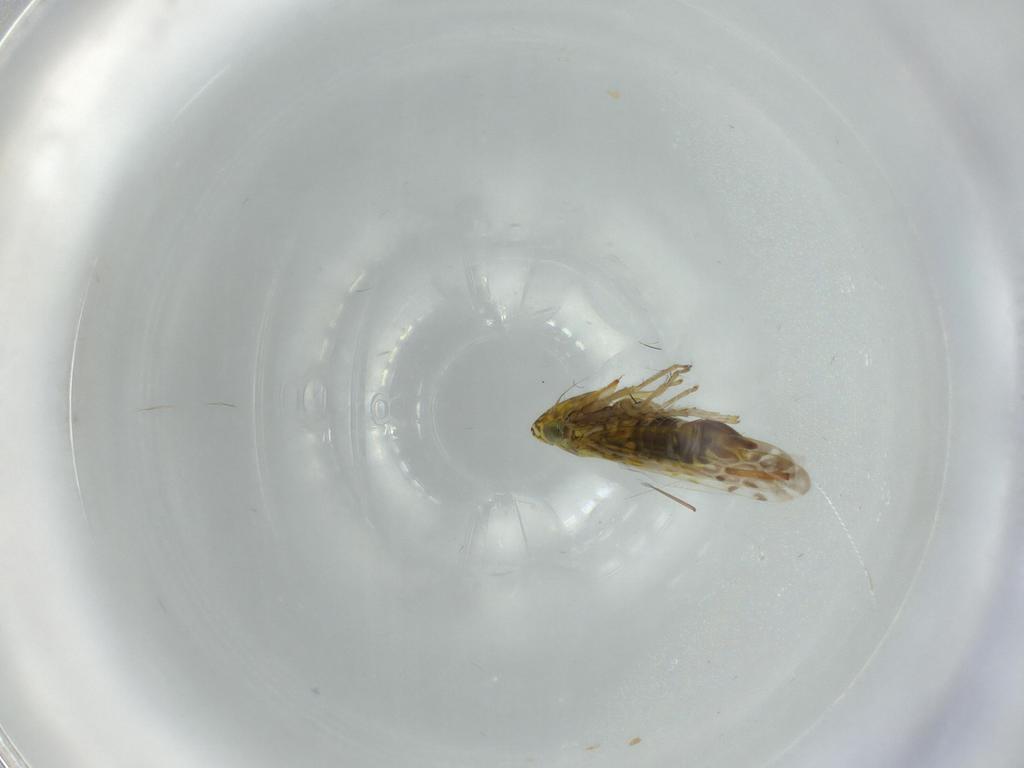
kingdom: Animalia
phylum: Arthropoda
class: Insecta
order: Hemiptera
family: Cicadellidae
